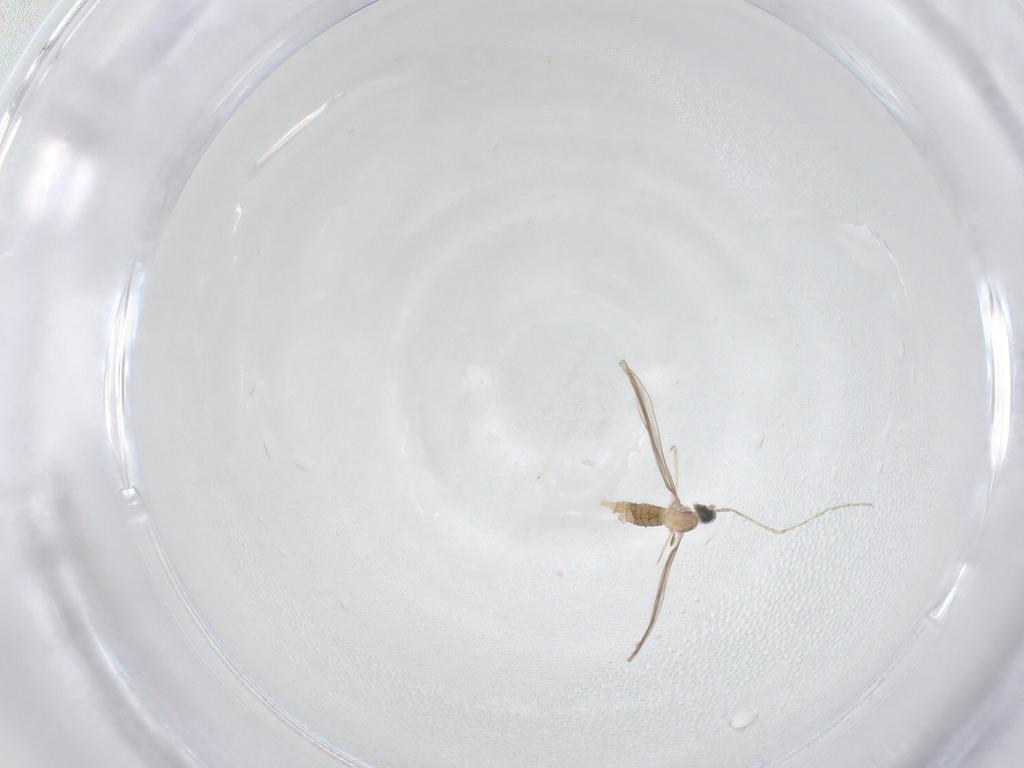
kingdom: Animalia
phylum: Arthropoda
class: Insecta
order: Diptera
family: Cecidomyiidae
